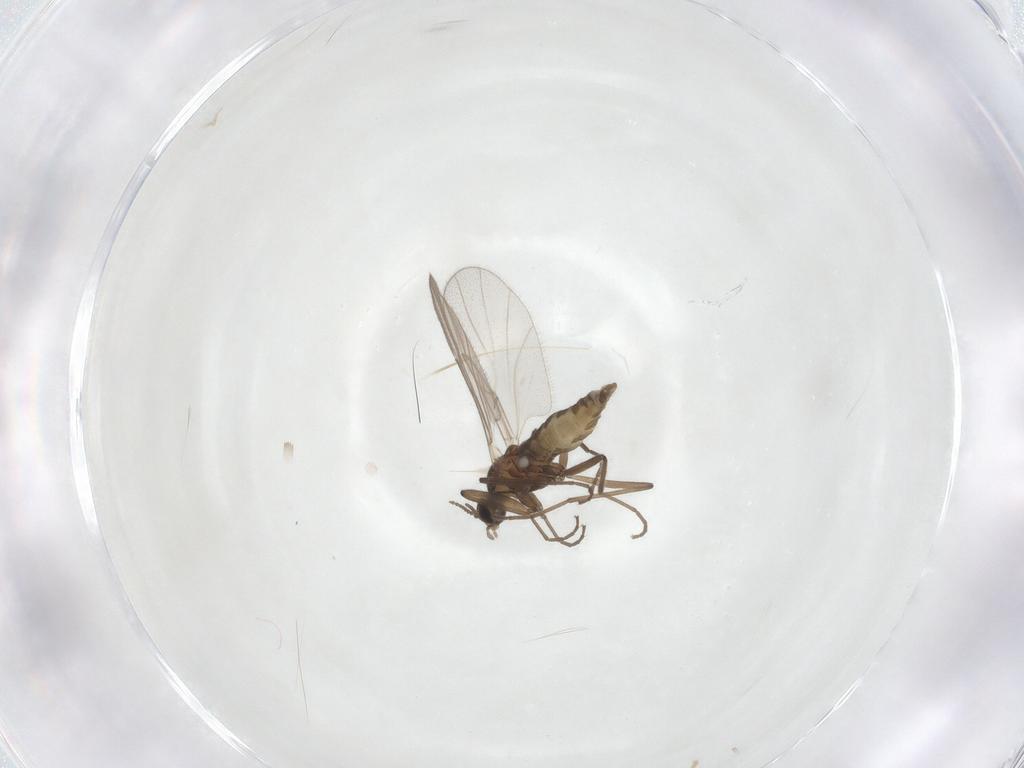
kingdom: Animalia
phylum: Arthropoda
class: Insecta
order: Diptera
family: Cecidomyiidae
